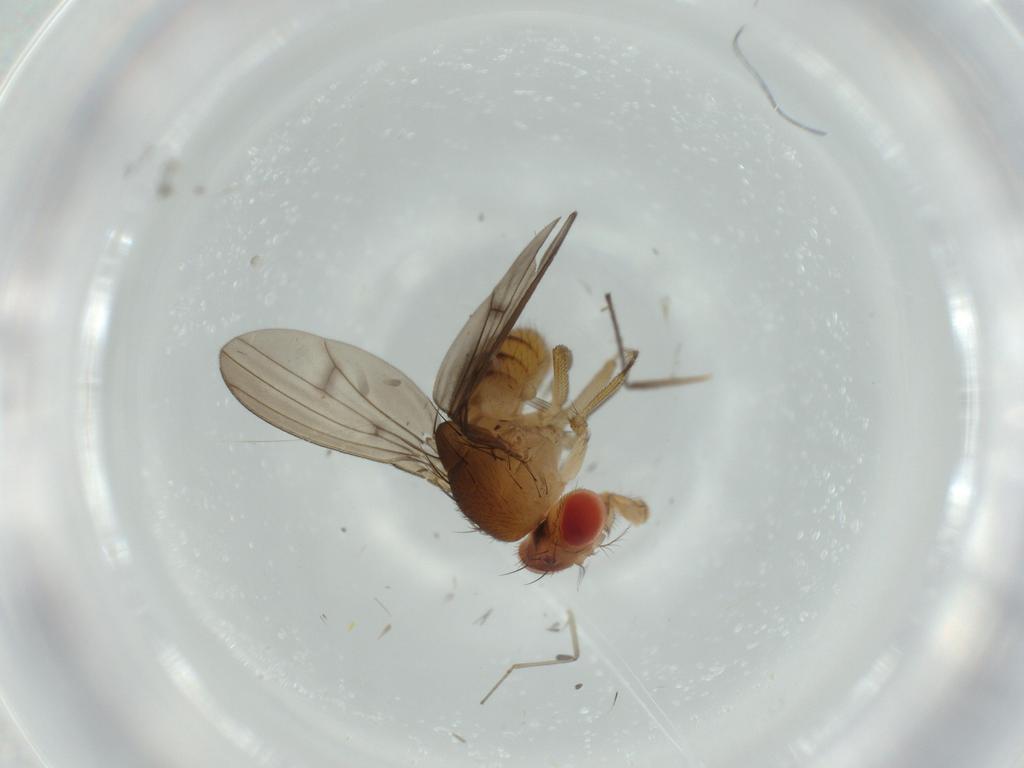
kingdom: Animalia
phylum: Arthropoda
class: Insecta
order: Diptera
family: Drosophilidae
